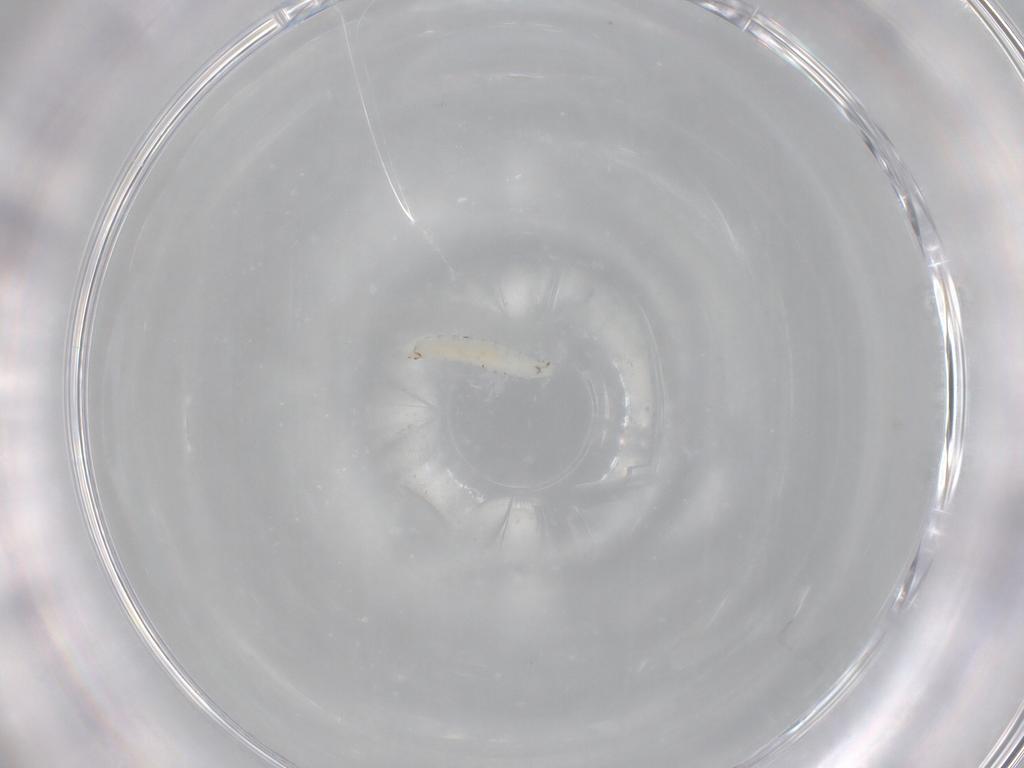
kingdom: Animalia
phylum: Arthropoda
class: Insecta
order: Diptera
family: Drosophilidae
